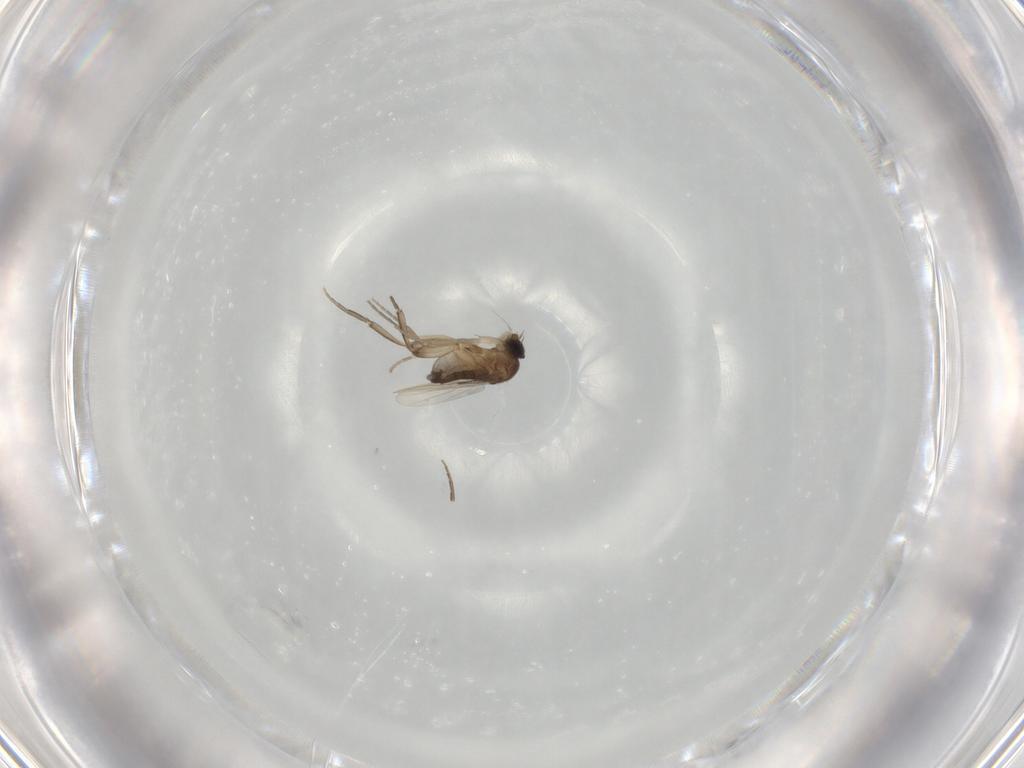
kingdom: Animalia
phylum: Arthropoda
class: Insecta
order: Diptera
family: Phoridae
